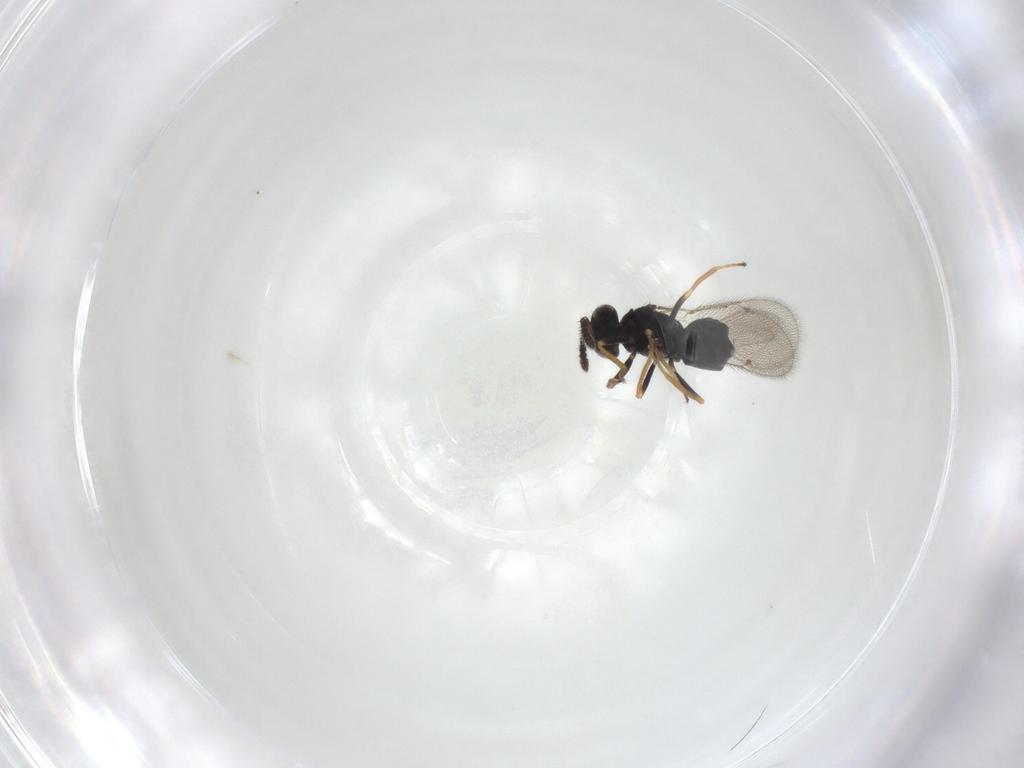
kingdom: Animalia
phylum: Arthropoda
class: Insecta
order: Hymenoptera
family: Eulophidae
